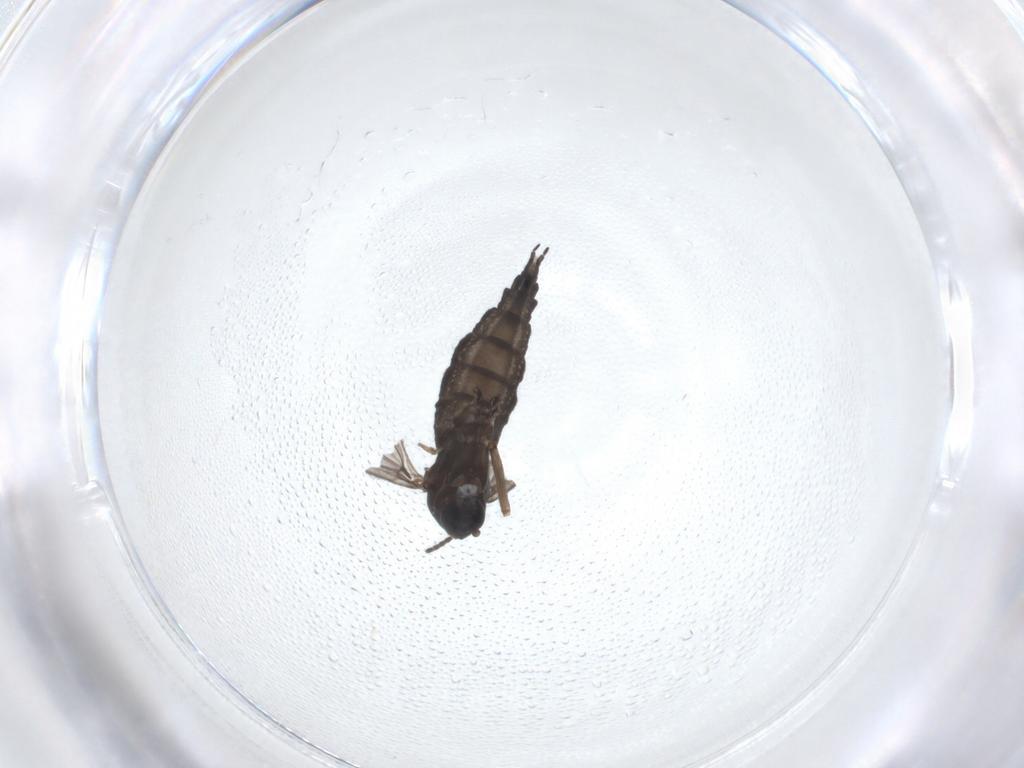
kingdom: Animalia
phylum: Arthropoda
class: Insecta
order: Diptera
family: Sciaridae
